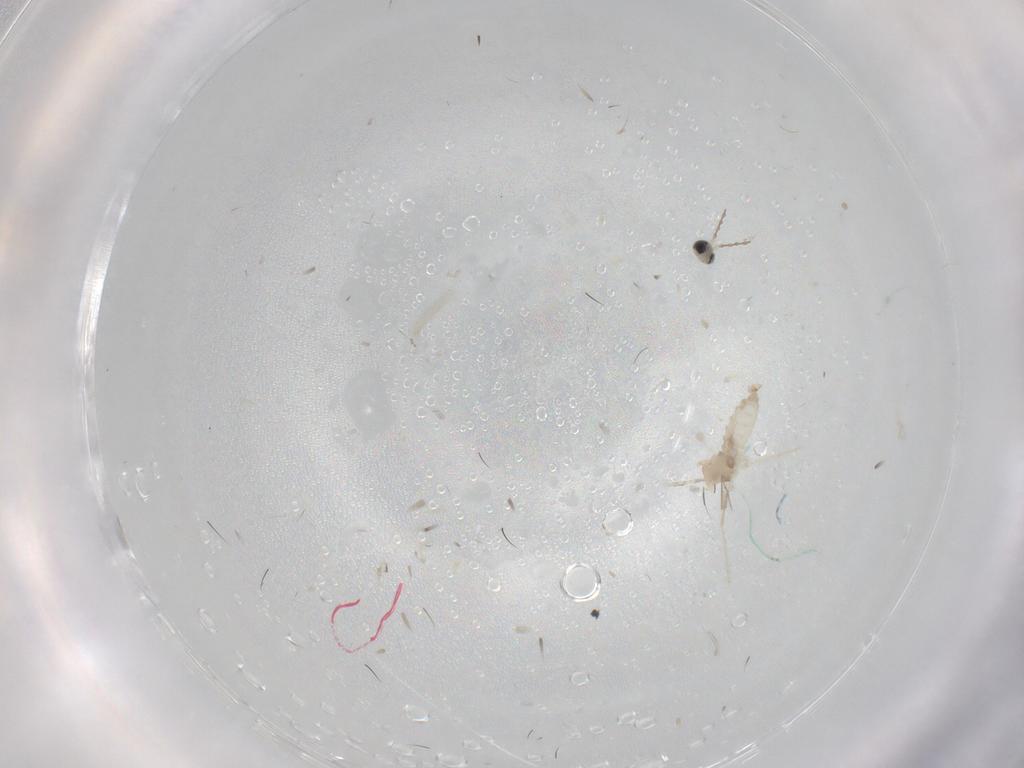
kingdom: Animalia
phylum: Arthropoda
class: Insecta
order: Diptera
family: Cecidomyiidae
